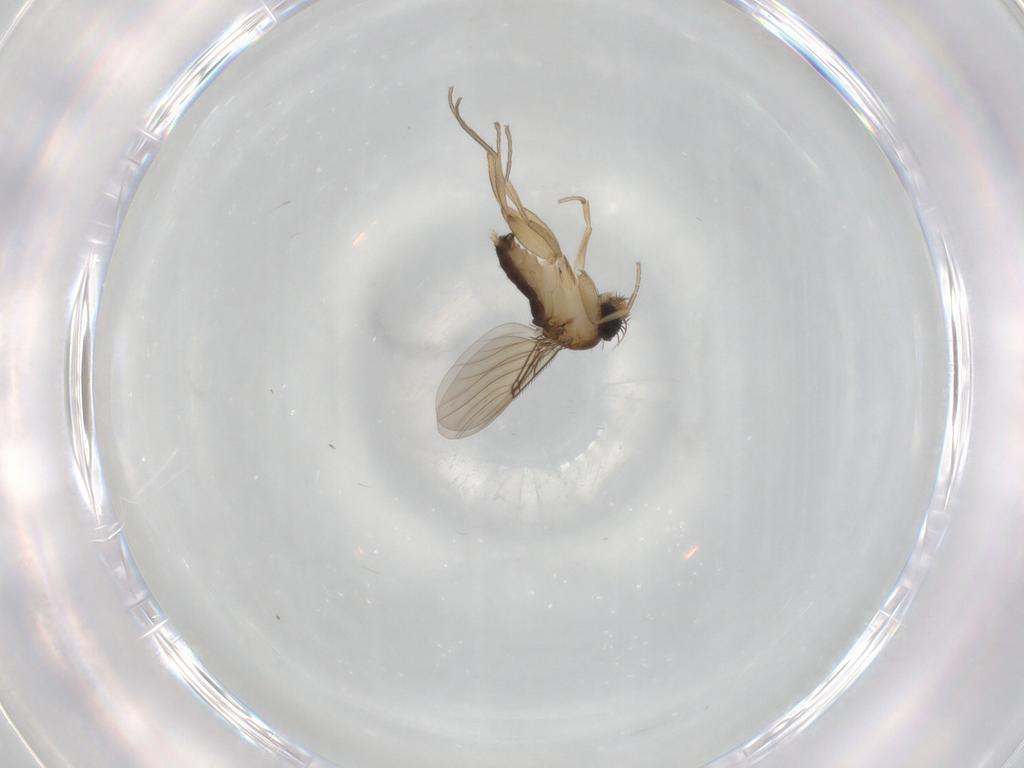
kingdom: Animalia
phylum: Arthropoda
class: Insecta
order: Diptera
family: Phoridae
